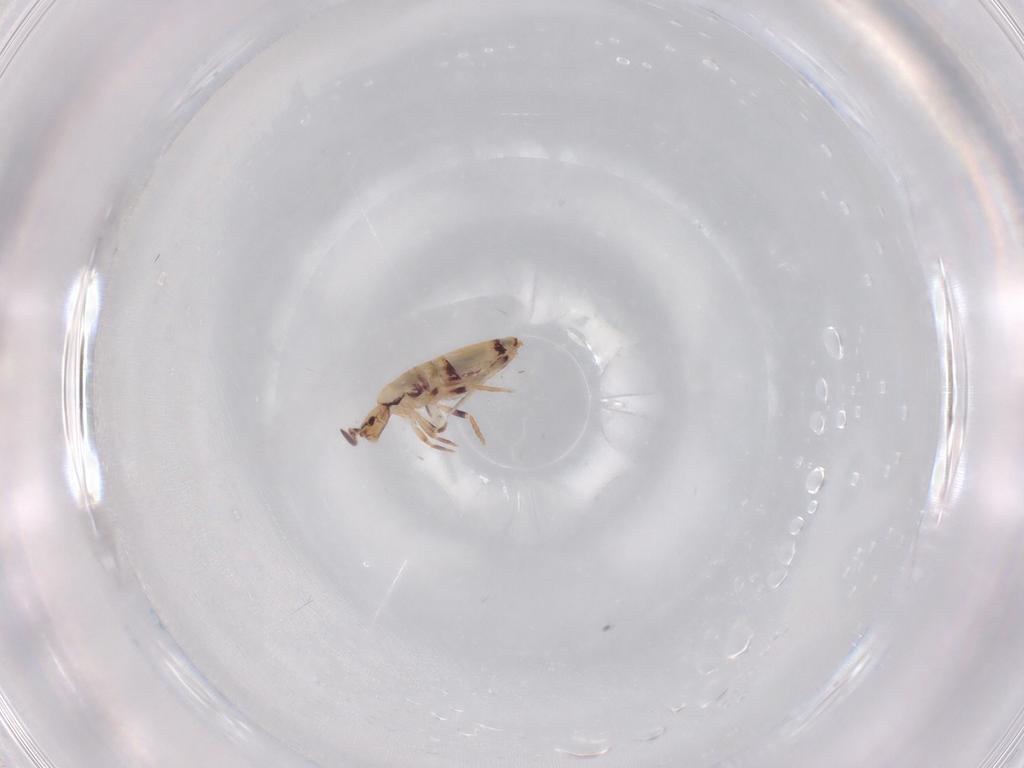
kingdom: Animalia
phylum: Arthropoda
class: Collembola
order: Entomobryomorpha
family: Entomobryidae
